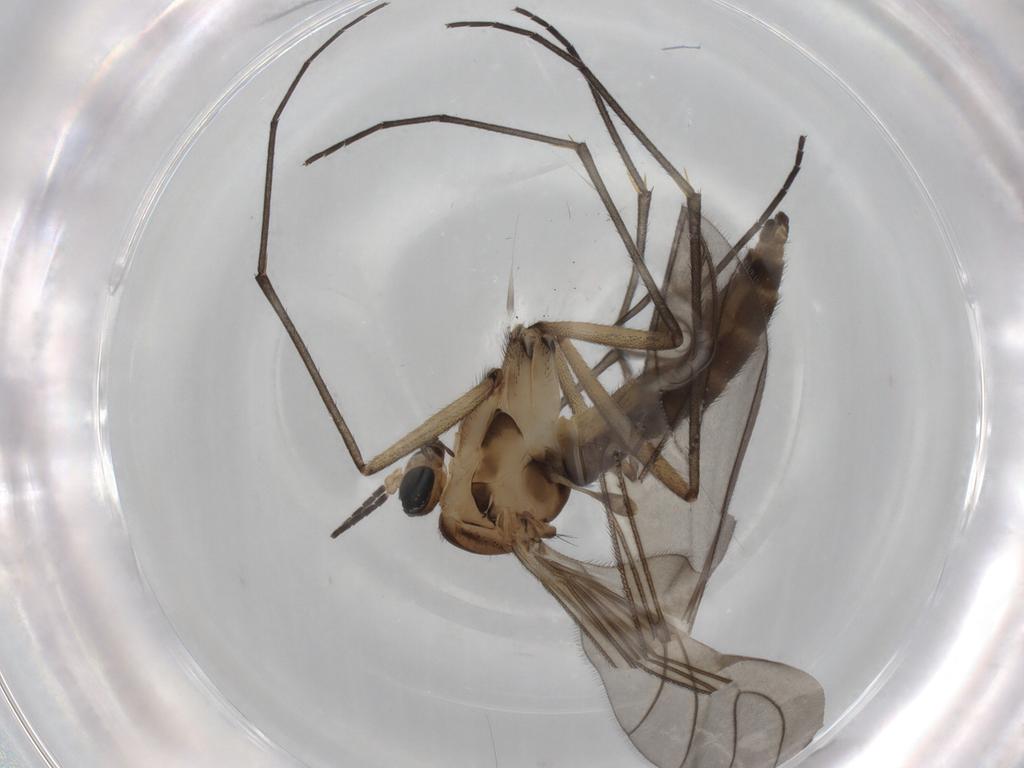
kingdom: Animalia
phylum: Arthropoda
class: Insecta
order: Diptera
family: Sciaridae
